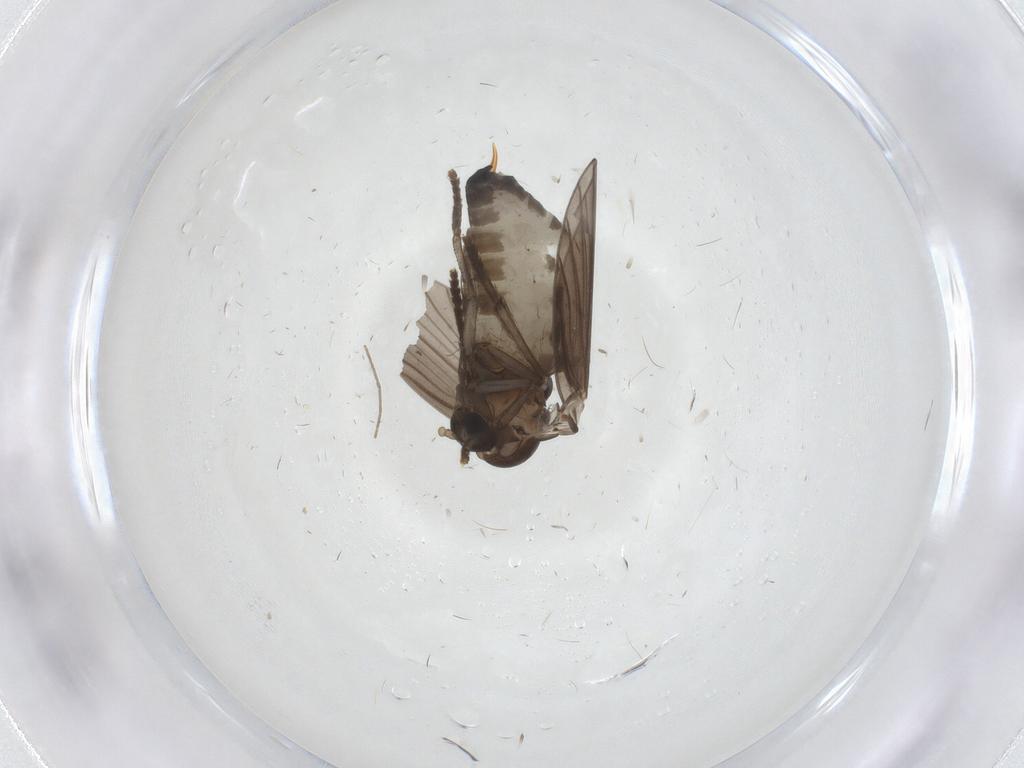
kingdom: Animalia
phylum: Arthropoda
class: Insecta
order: Diptera
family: Psychodidae
